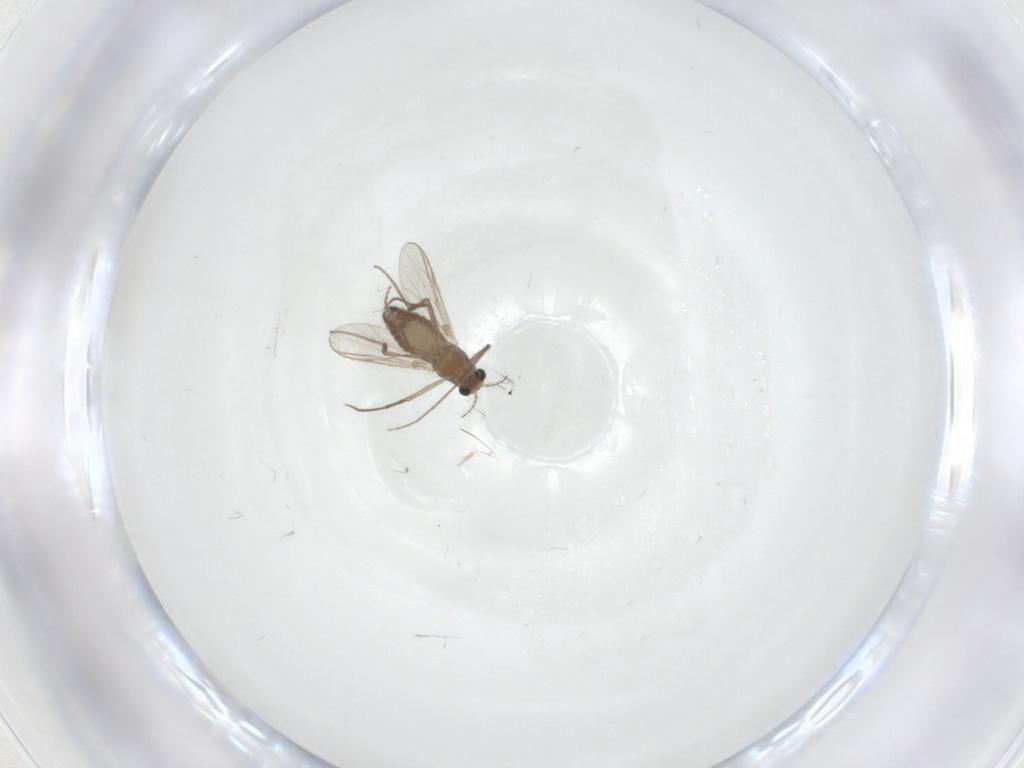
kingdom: Animalia
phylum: Arthropoda
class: Insecta
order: Diptera
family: Chironomidae
